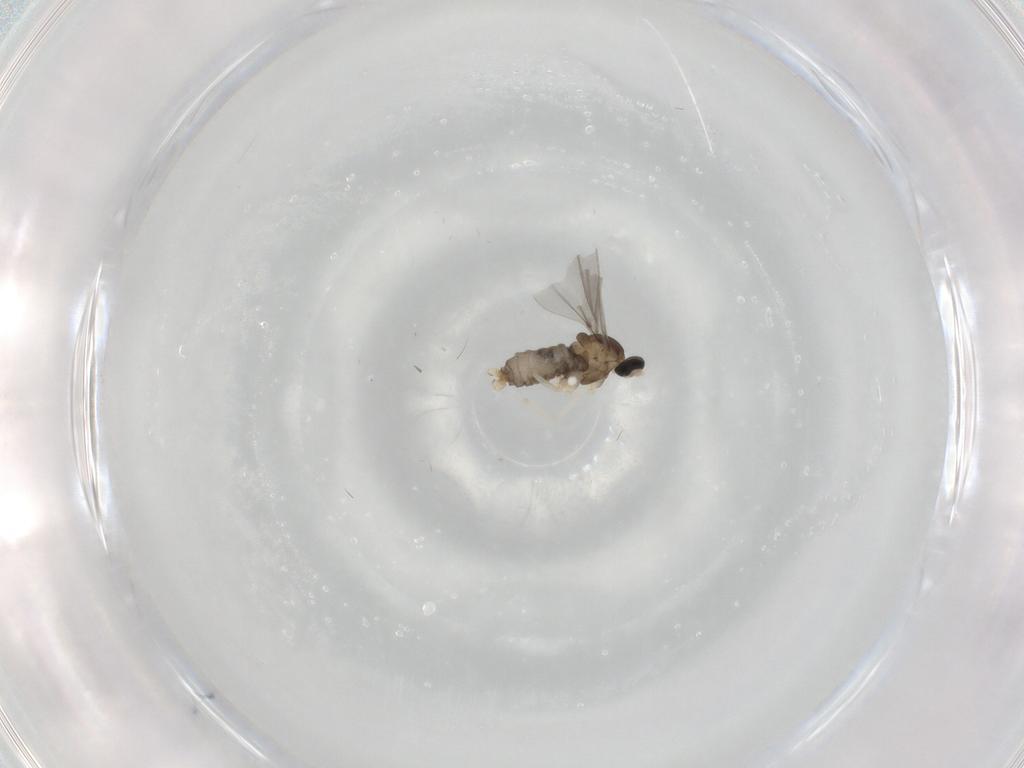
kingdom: Animalia
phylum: Arthropoda
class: Insecta
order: Diptera
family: Cecidomyiidae
